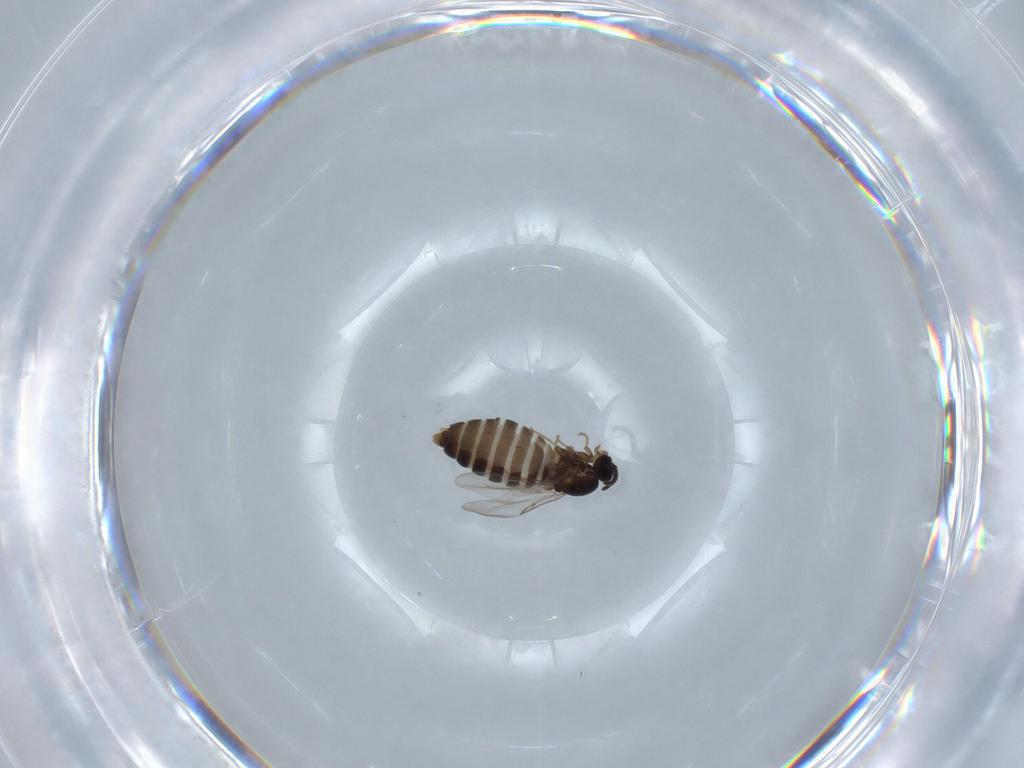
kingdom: Animalia
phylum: Arthropoda
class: Insecta
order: Diptera
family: Scatopsidae
